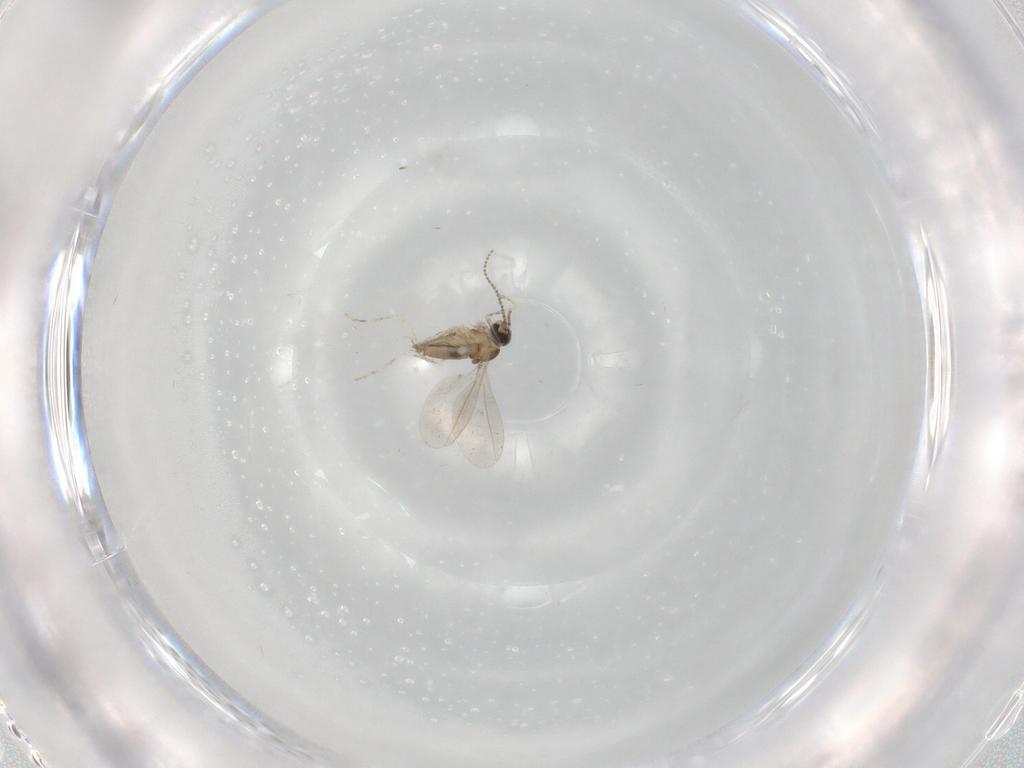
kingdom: Animalia
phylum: Arthropoda
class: Insecta
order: Diptera
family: Cecidomyiidae
